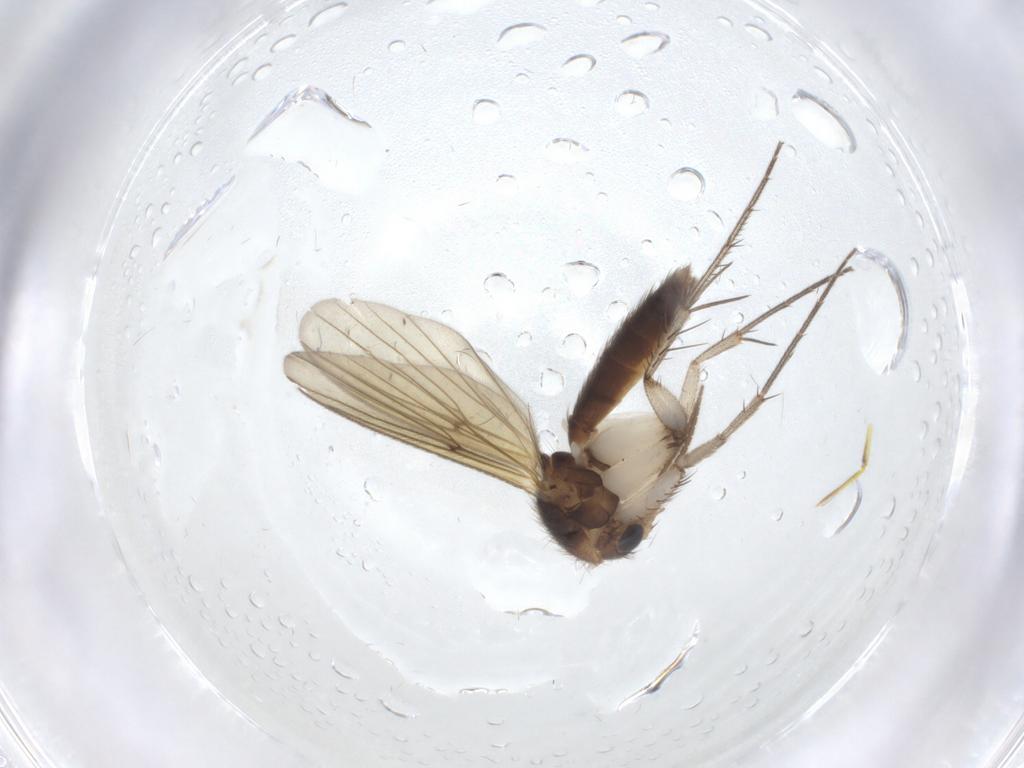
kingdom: Animalia
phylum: Arthropoda
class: Insecta
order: Diptera
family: Mycetophilidae
